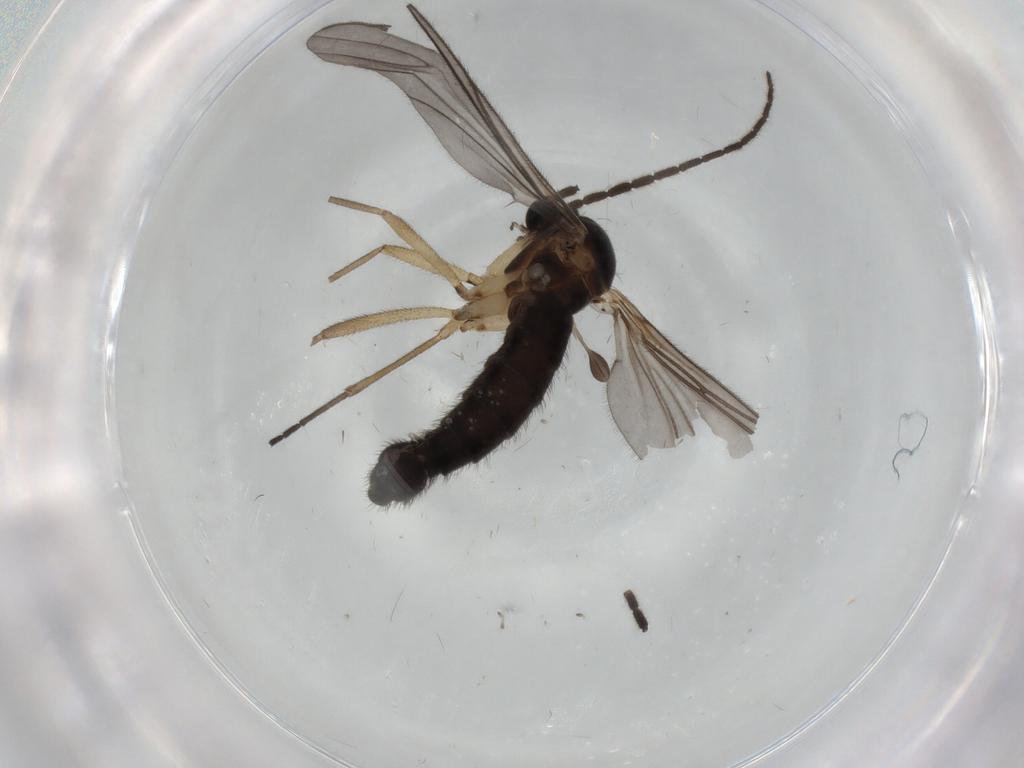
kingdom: Animalia
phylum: Arthropoda
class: Insecta
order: Diptera
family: Sciaridae
